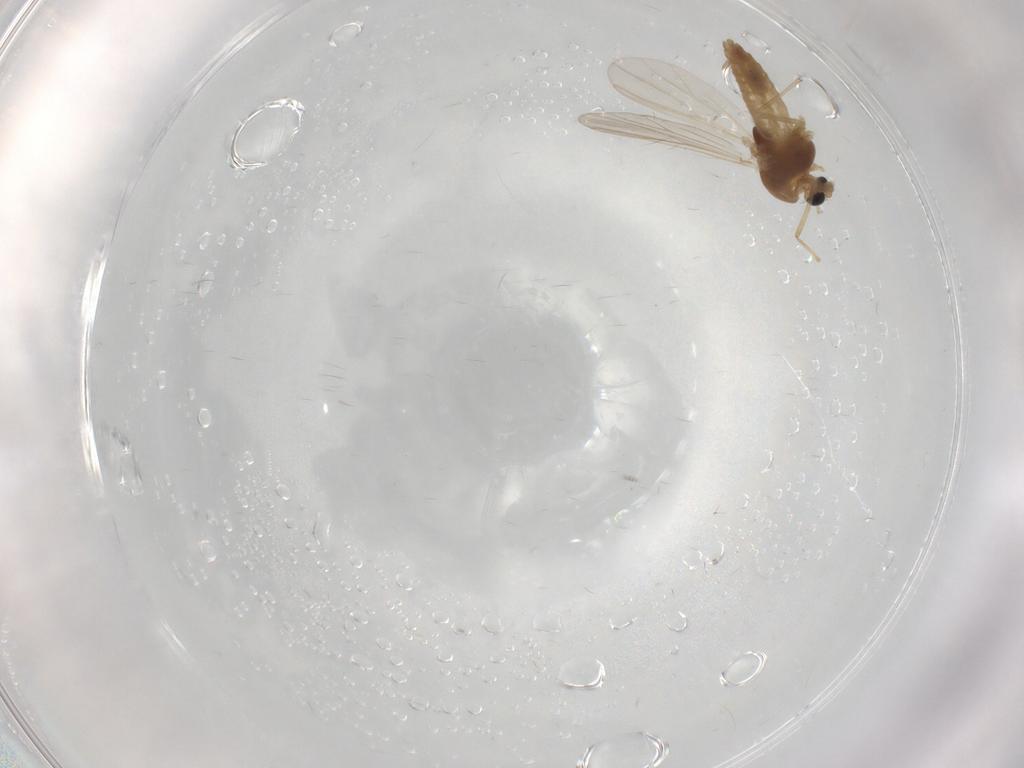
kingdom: Animalia
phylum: Arthropoda
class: Insecta
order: Diptera
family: Chironomidae
